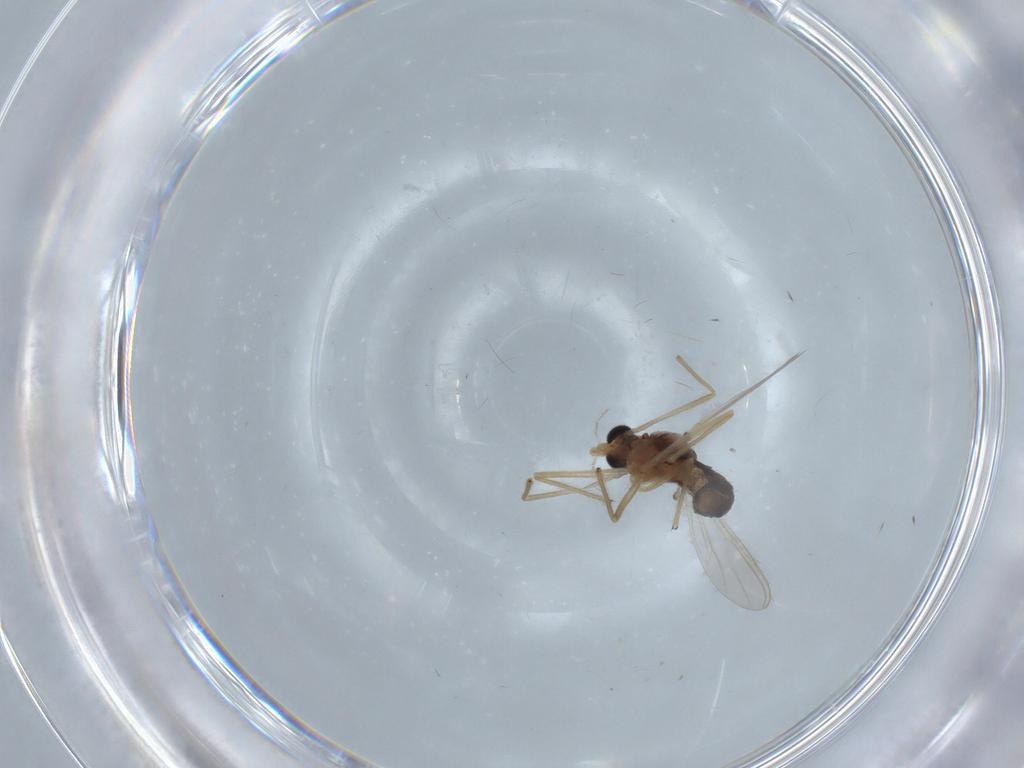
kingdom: Animalia
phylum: Arthropoda
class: Insecta
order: Diptera
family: Chironomidae
